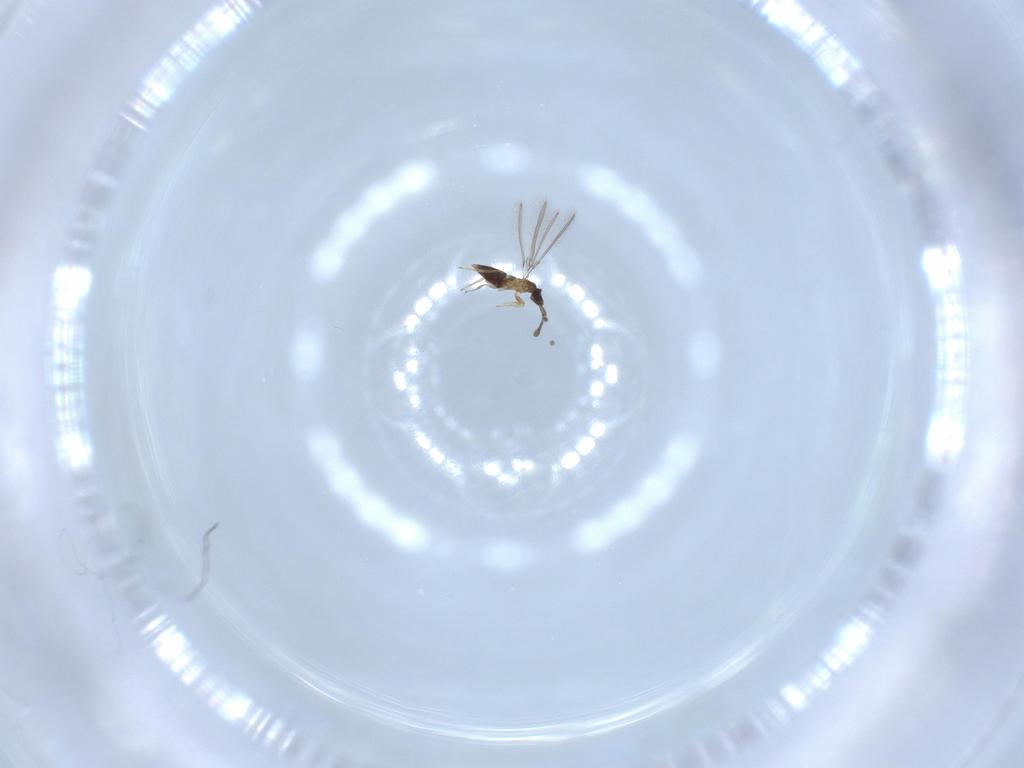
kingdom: Animalia
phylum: Arthropoda
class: Insecta
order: Hymenoptera
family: Mymaridae
